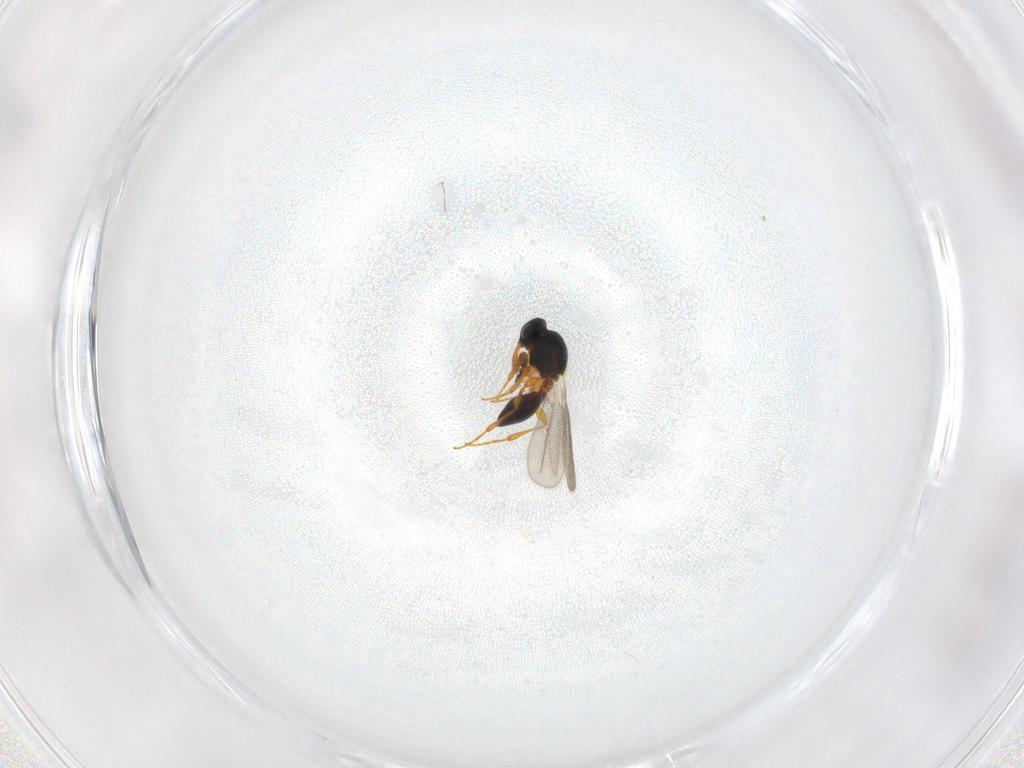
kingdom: Animalia
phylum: Arthropoda
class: Insecta
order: Hymenoptera
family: Platygastridae
